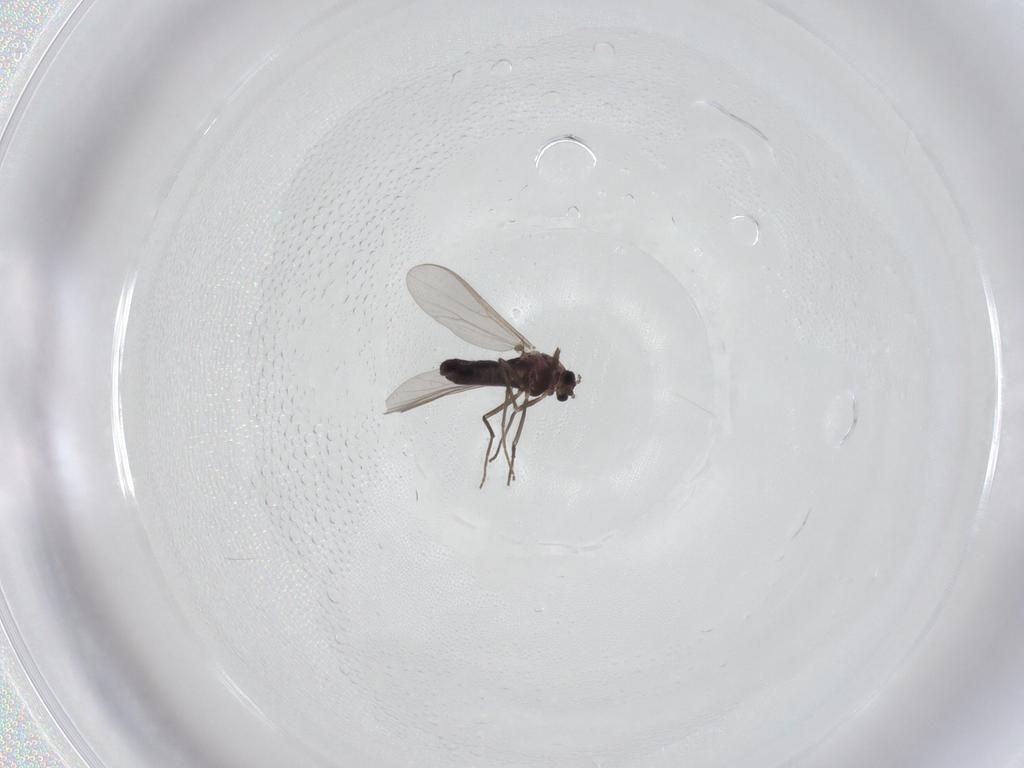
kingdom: Animalia
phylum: Arthropoda
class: Insecta
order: Diptera
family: Chironomidae
